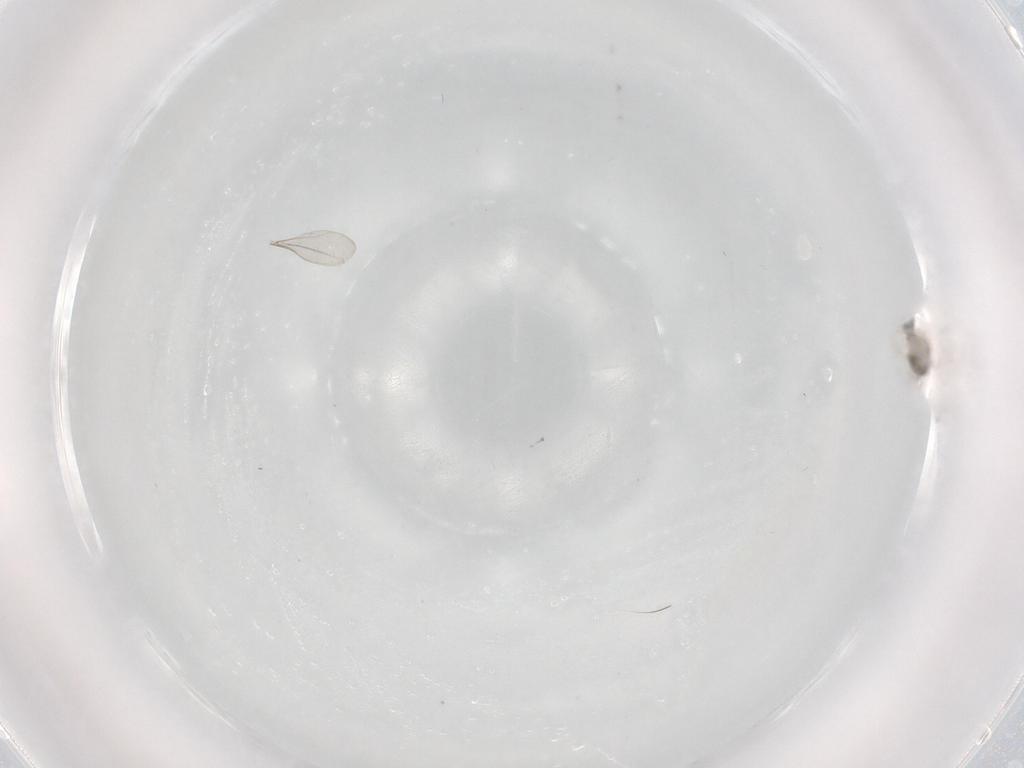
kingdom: Animalia
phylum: Arthropoda
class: Insecta
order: Diptera
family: Cecidomyiidae
